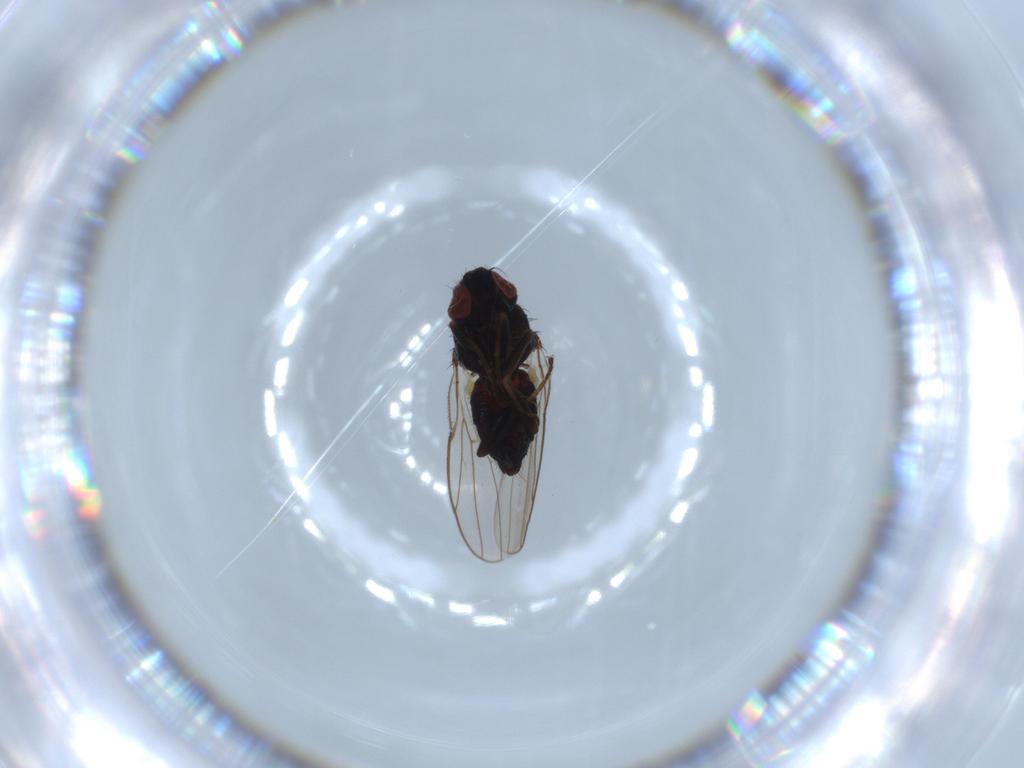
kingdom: Animalia
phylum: Arthropoda
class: Insecta
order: Diptera
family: Chloropidae
